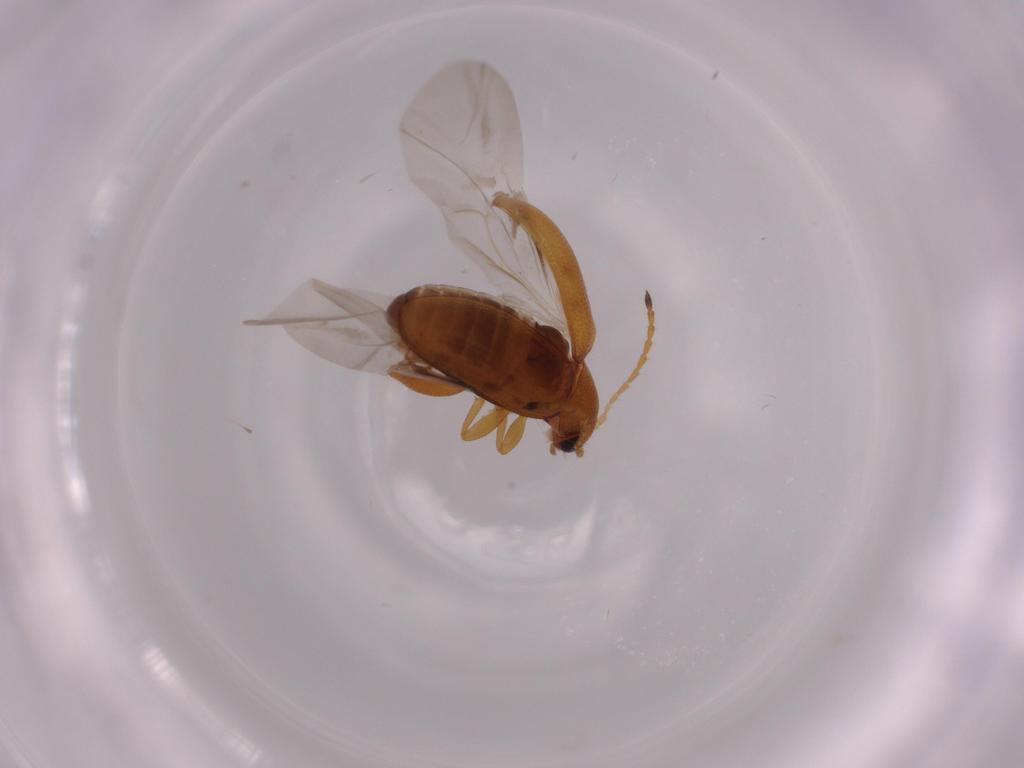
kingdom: Animalia
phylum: Arthropoda
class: Insecta
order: Coleoptera
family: Chrysomelidae
